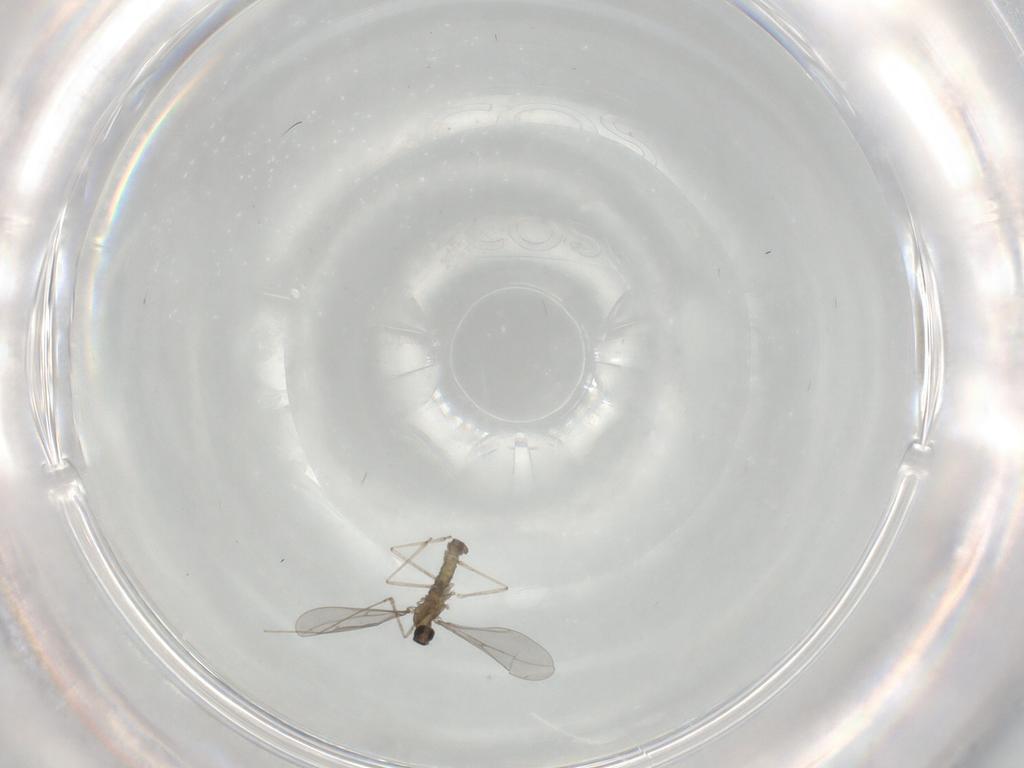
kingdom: Animalia
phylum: Arthropoda
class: Insecta
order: Diptera
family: Cecidomyiidae
